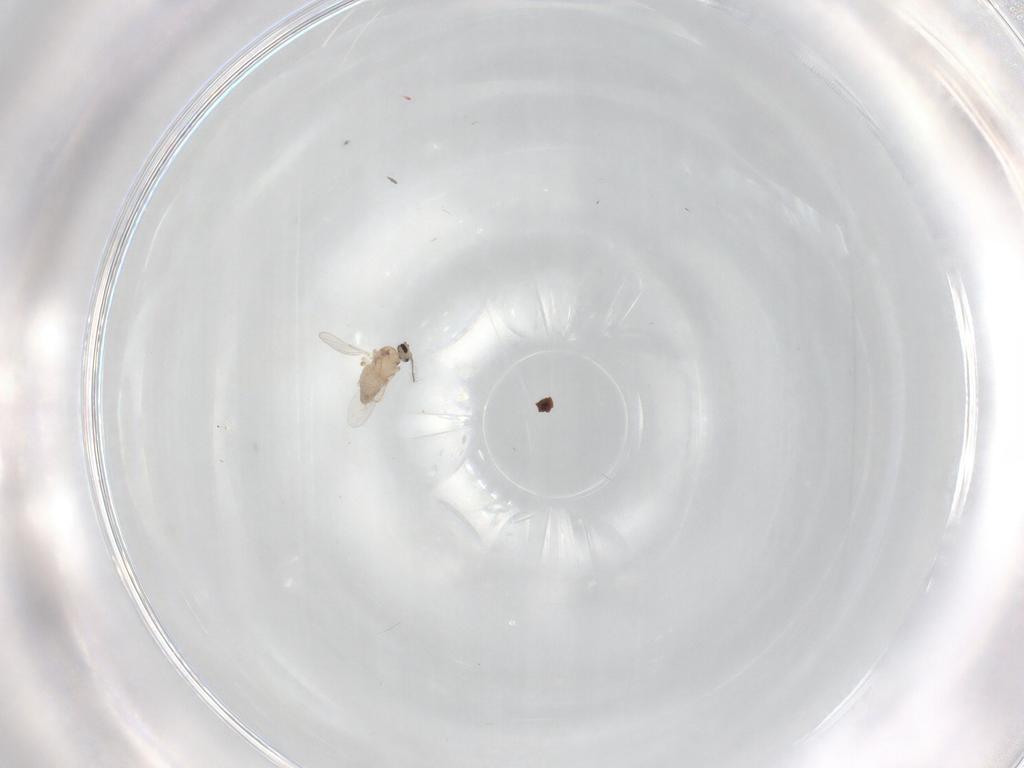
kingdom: Animalia
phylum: Arthropoda
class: Insecta
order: Diptera
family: Ceratopogonidae
